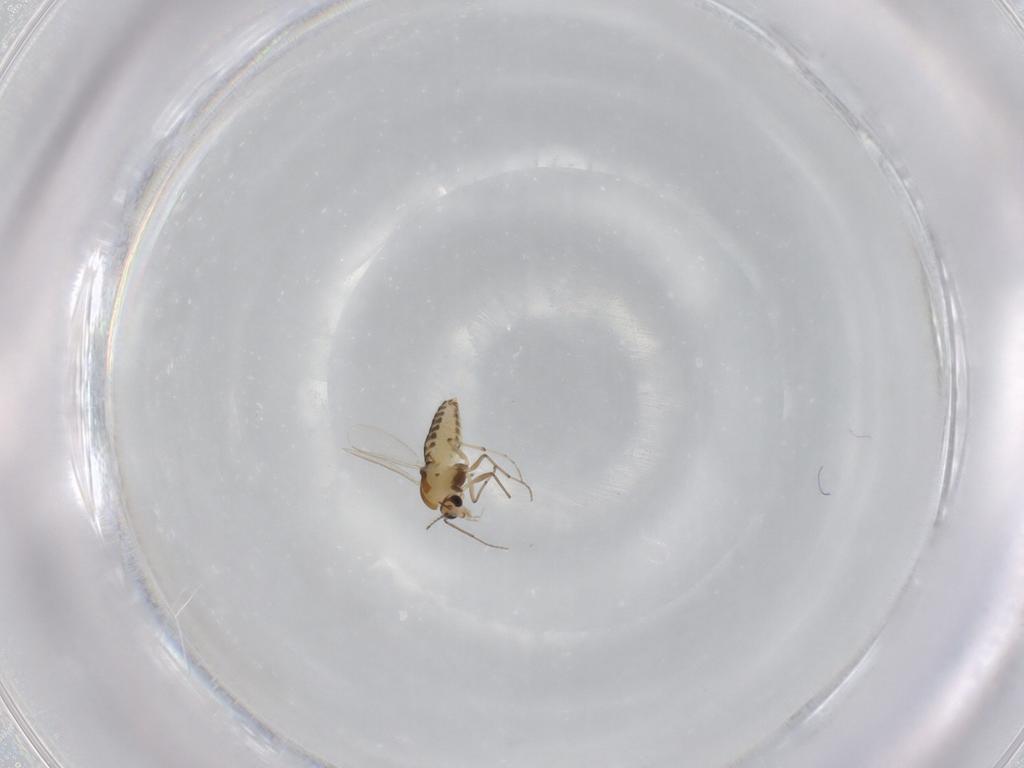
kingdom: Animalia
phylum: Arthropoda
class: Insecta
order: Diptera
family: Chironomidae
